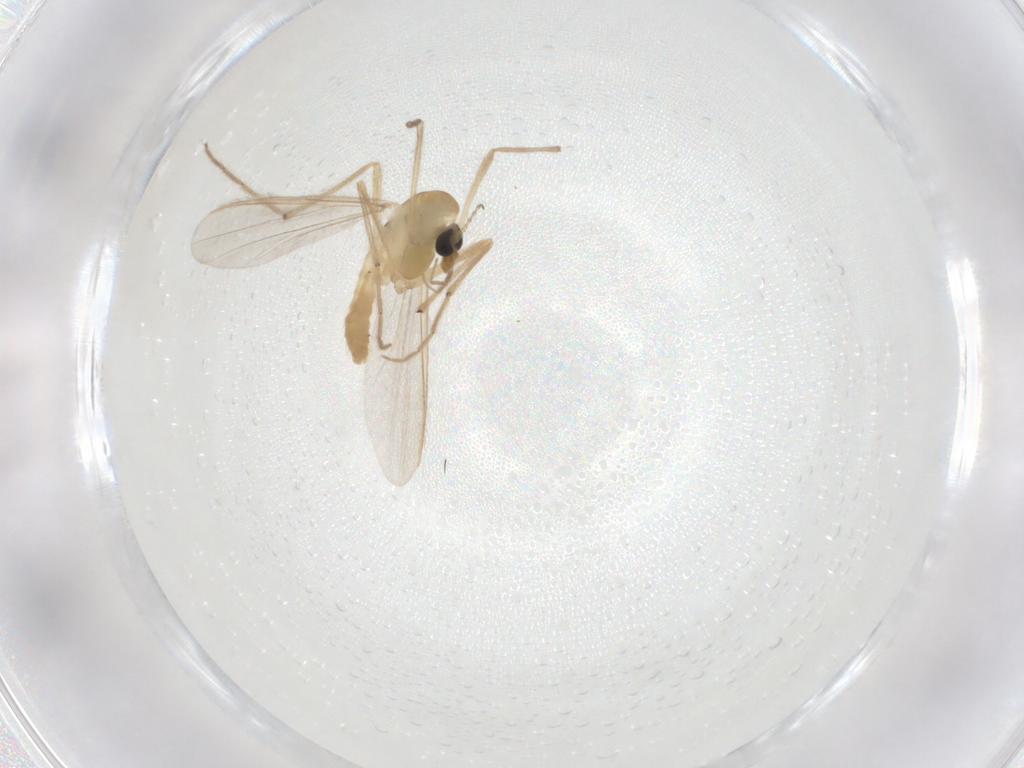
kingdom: Animalia
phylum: Arthropoda
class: Insecta
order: Diptera
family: Chironomidae
